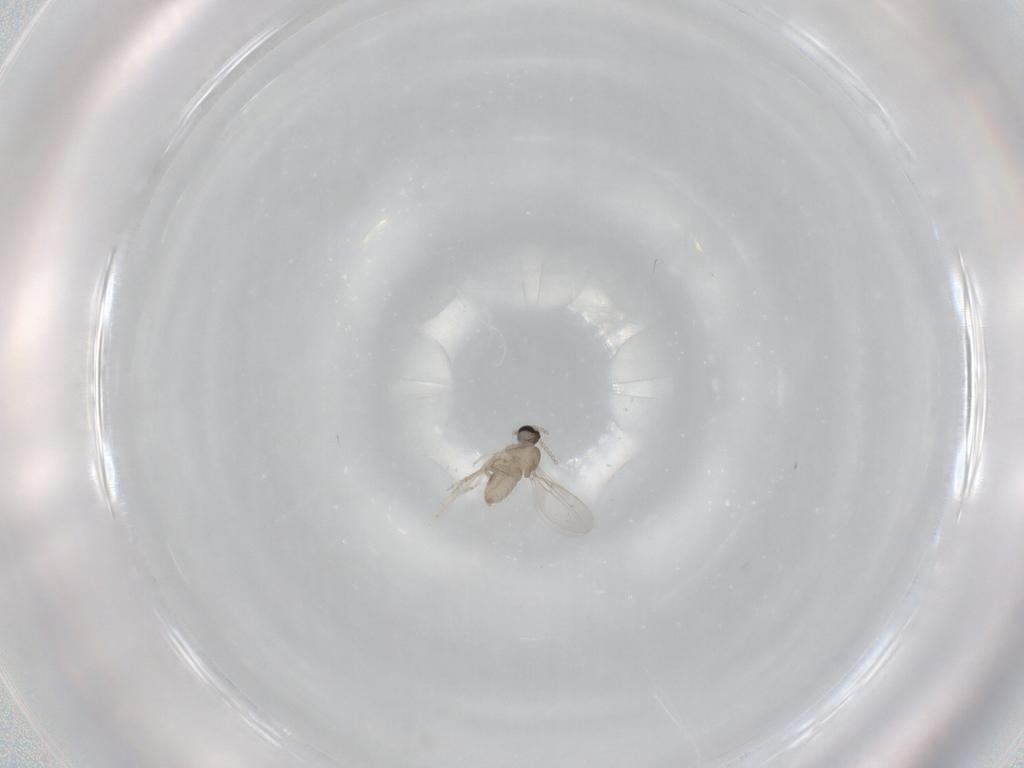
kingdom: Animalia
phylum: Arthropoda
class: Insecta
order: Diptera
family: Cecidomyiidae
